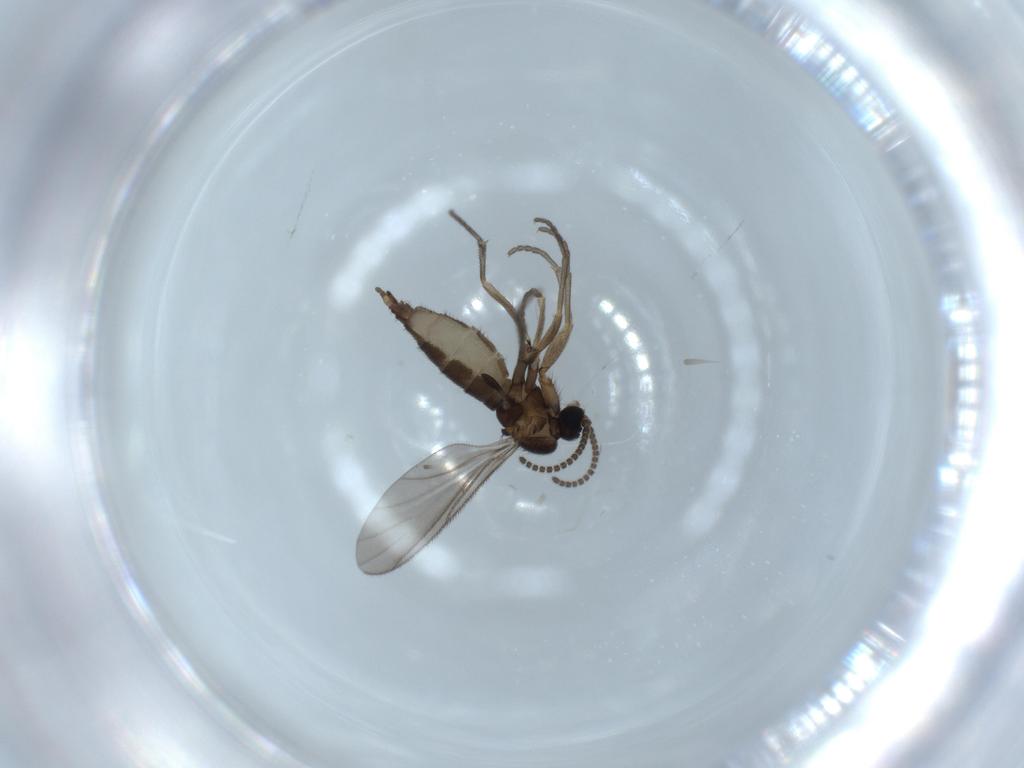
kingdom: Animalia
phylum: Arthropoda
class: Insecta
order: Diptera
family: Sciaridae
